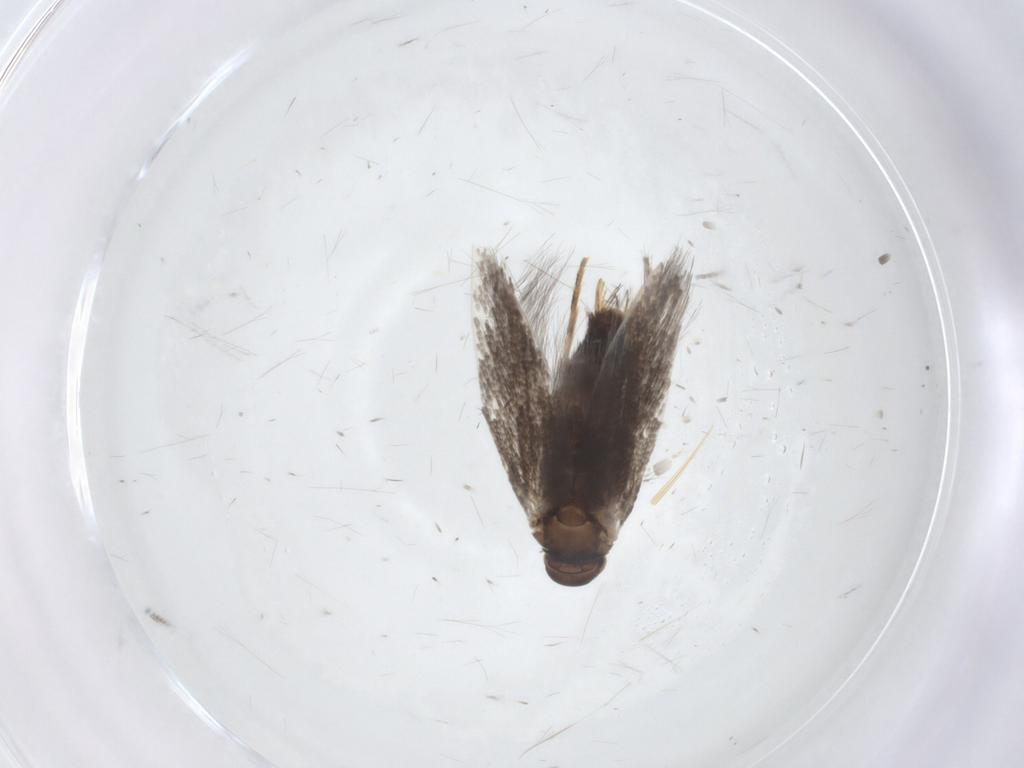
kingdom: Animalia
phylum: Arthropoda
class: Insecta
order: Lepidoptera
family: Elachistidae
